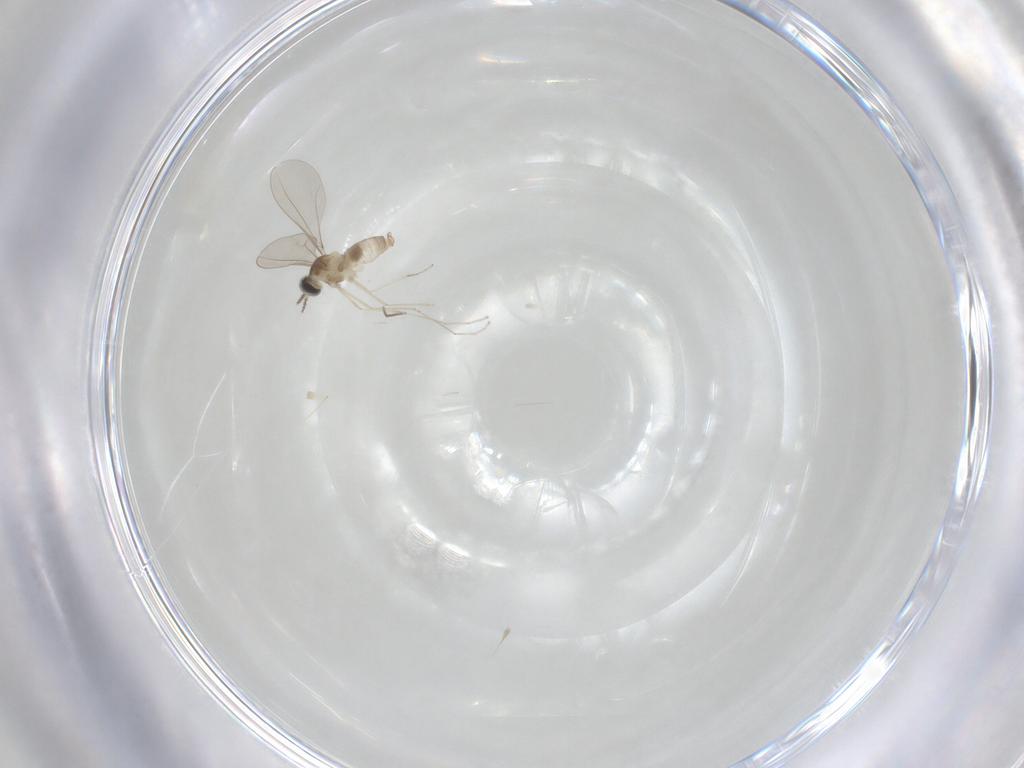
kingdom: Animalia
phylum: Arthropoda
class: Insecta
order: Diptera
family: Cecidomyiidae
